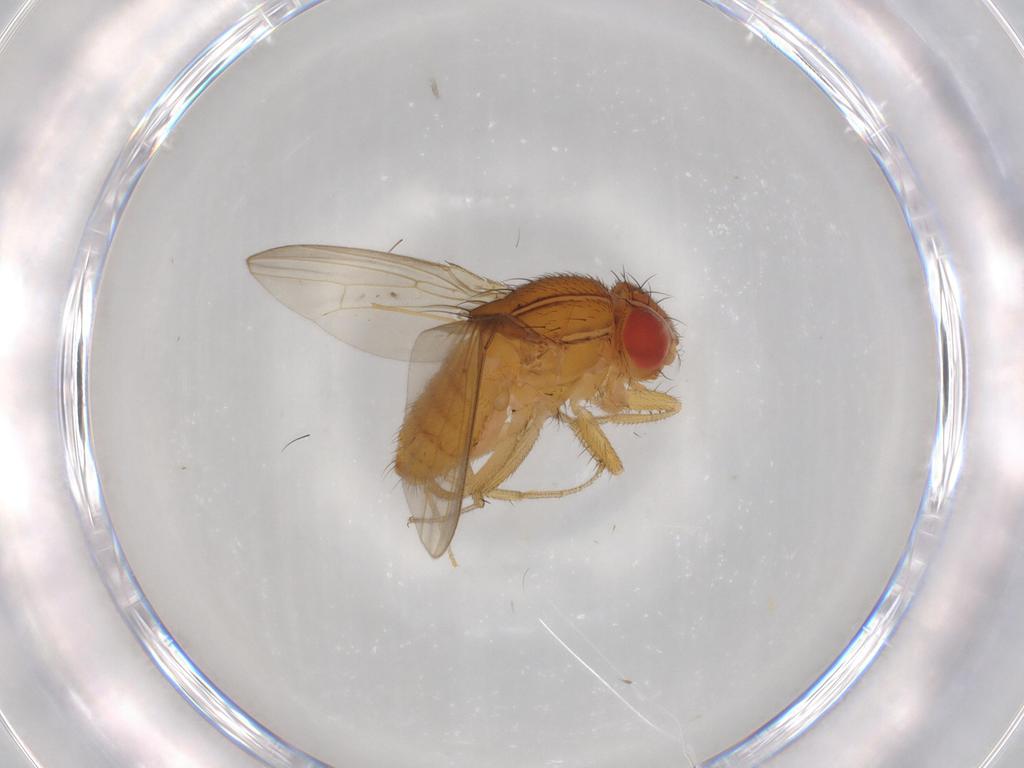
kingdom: Animalia
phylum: Arthropoda
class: Insecta
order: Diptera
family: Drosophilidae
